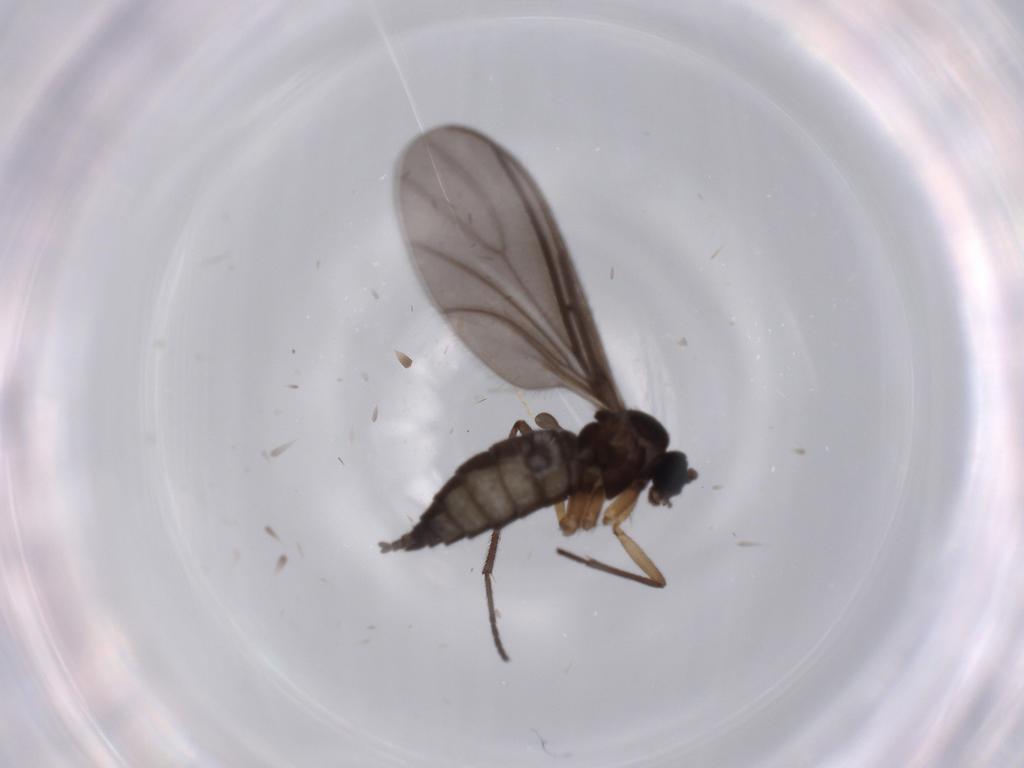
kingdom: Animalia
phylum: Arthropoda
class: Insecta
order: Diptera
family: Sciaridae
